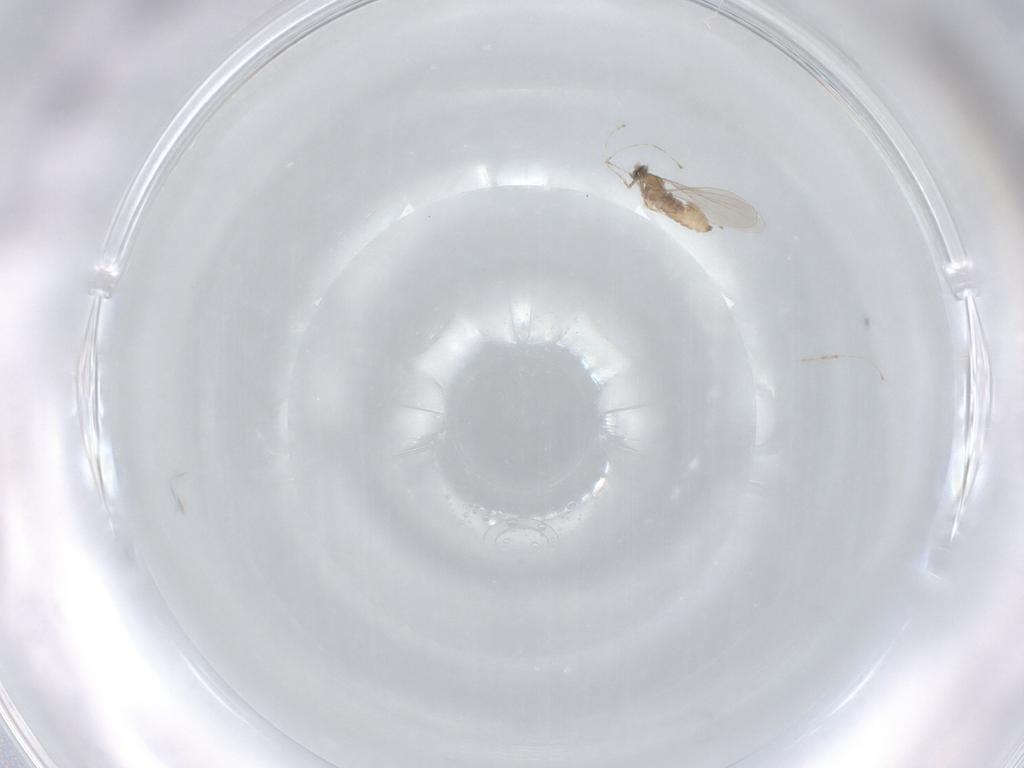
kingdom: Animalia
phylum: Arthropoda
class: Insecta
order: Diptera
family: Cecidomyiidae
